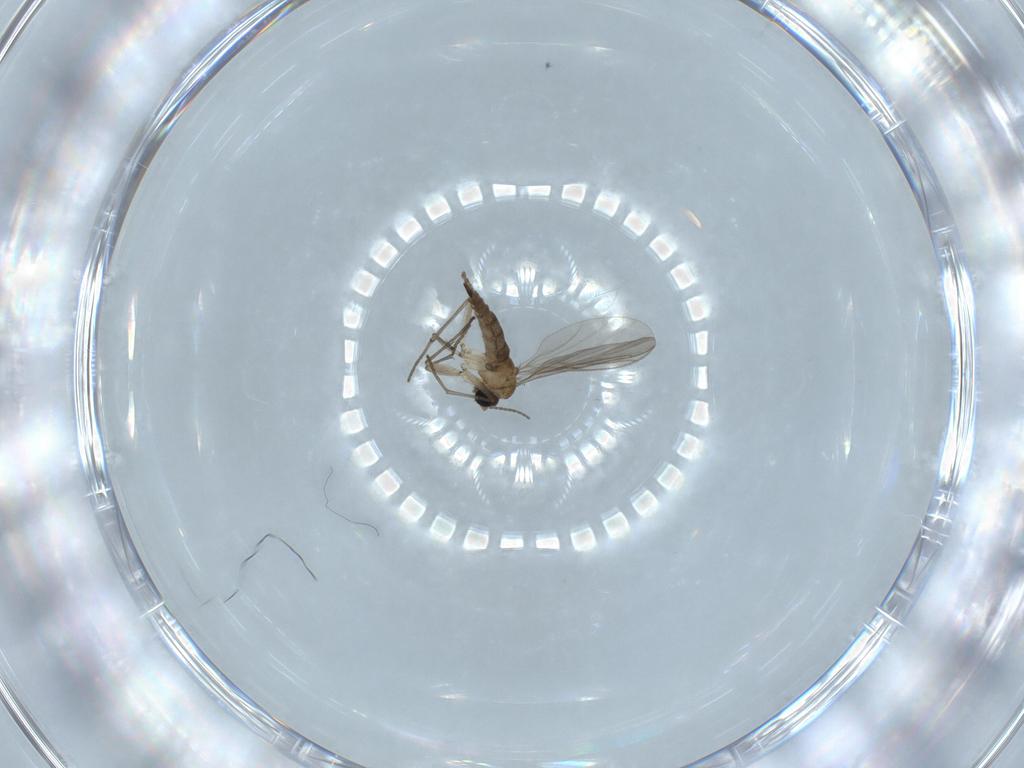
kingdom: Animalia
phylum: Arthropoda
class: Insecta
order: Diptera
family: Sciaridae
